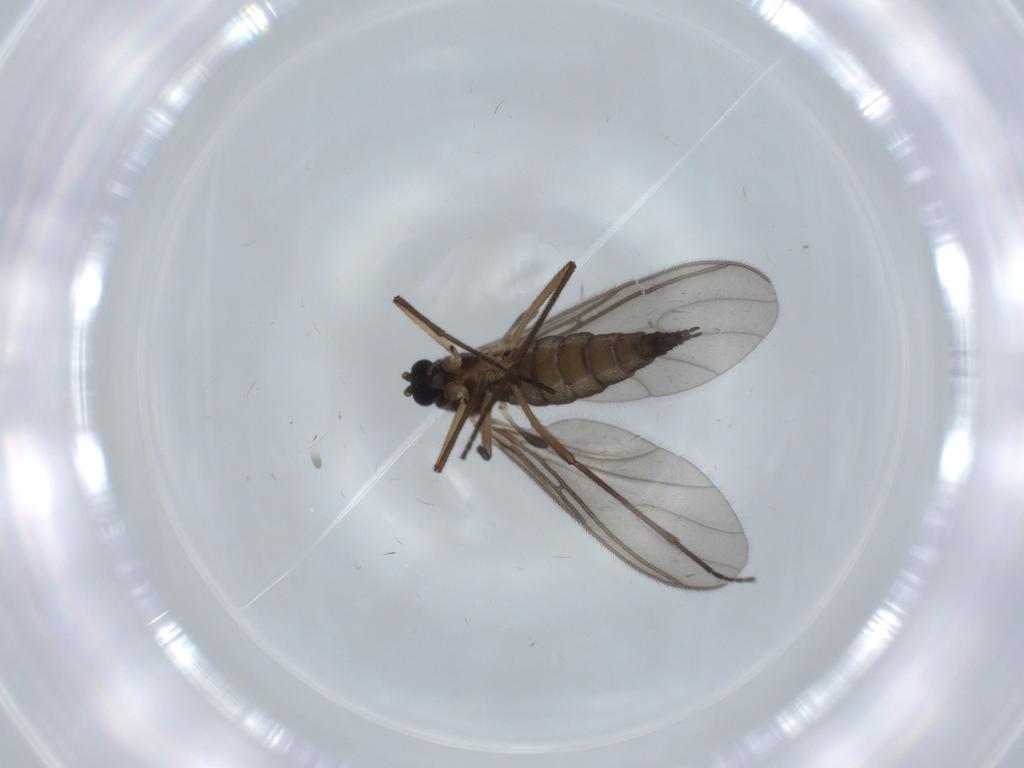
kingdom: Animalia
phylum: Arthropoda
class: Insecta
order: Diptera
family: Sciaridae
